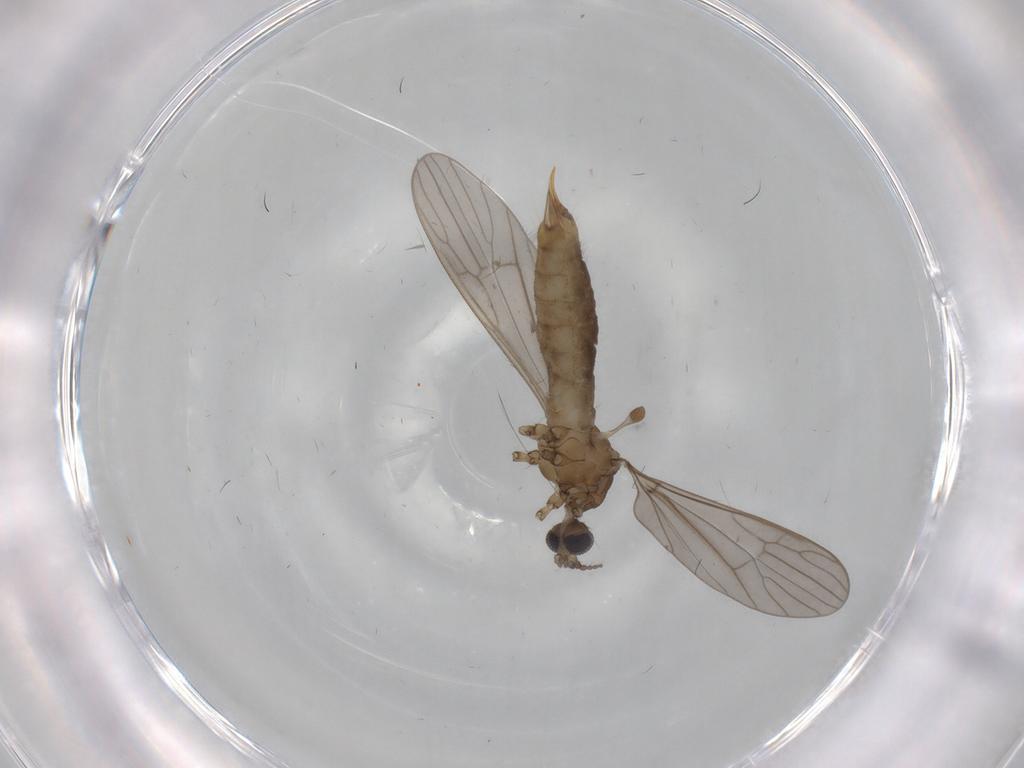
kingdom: Animalia
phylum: Arthropoda
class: Insecta
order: Diptera
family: Limoniidae
